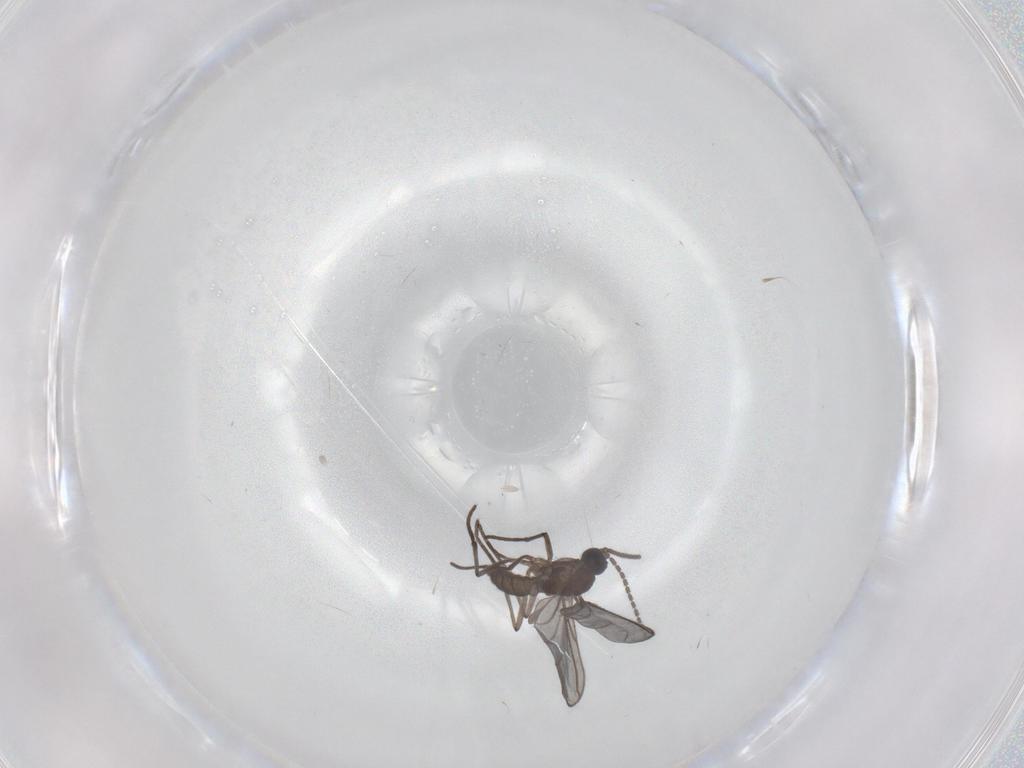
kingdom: Animalia
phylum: Arthropoda
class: Insecta
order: Diptera
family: Sciaridae
